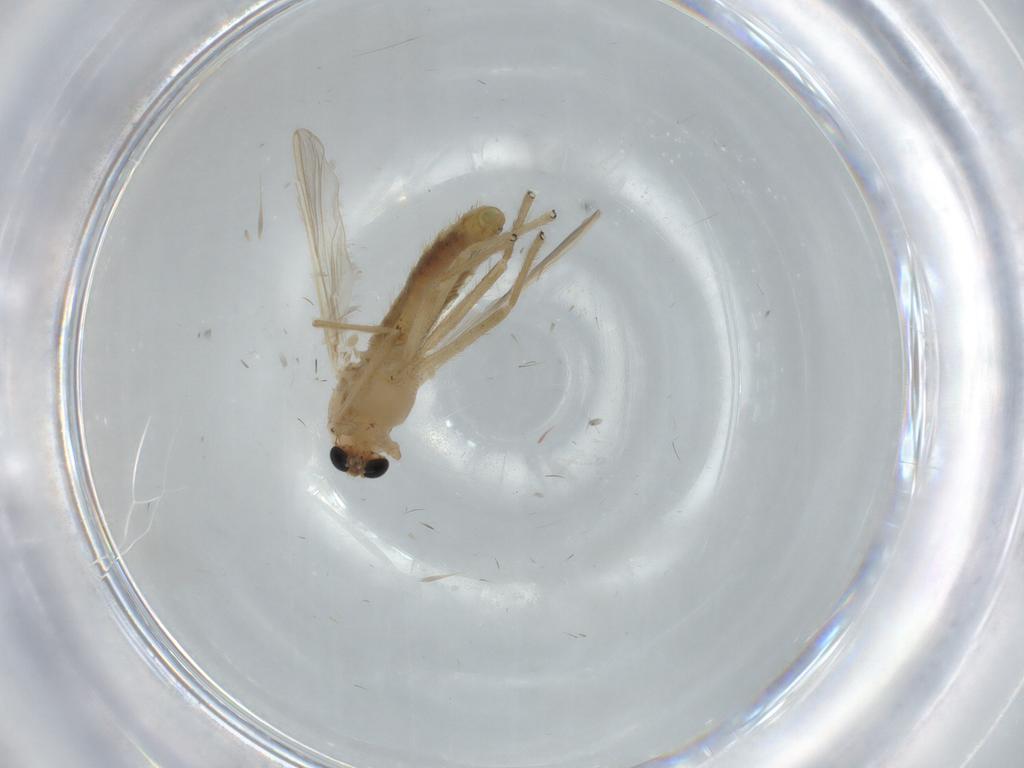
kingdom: Animalia
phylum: Arthropoda
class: Insecta
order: Diptera
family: Chironomidae
